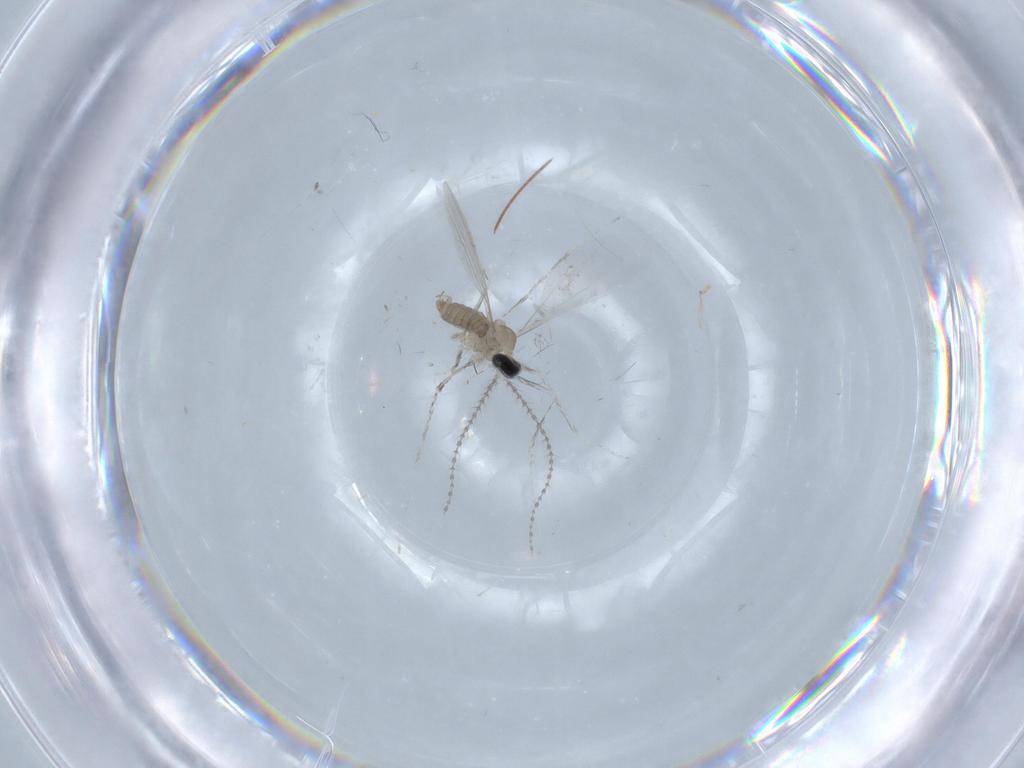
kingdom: Animalia
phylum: Arthropoda
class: Insecta
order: Diptera
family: Cecidomyiidae
